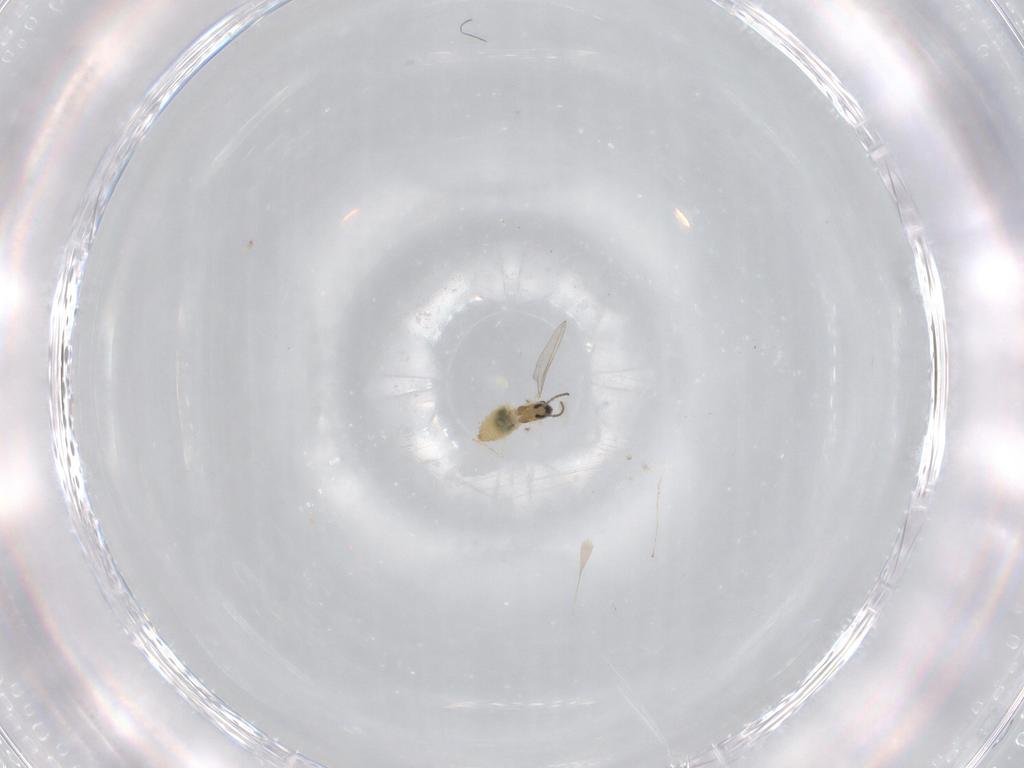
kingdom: Animalia
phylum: Arthropoda
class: Insecta
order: Diptera
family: Cecidomyiidae
